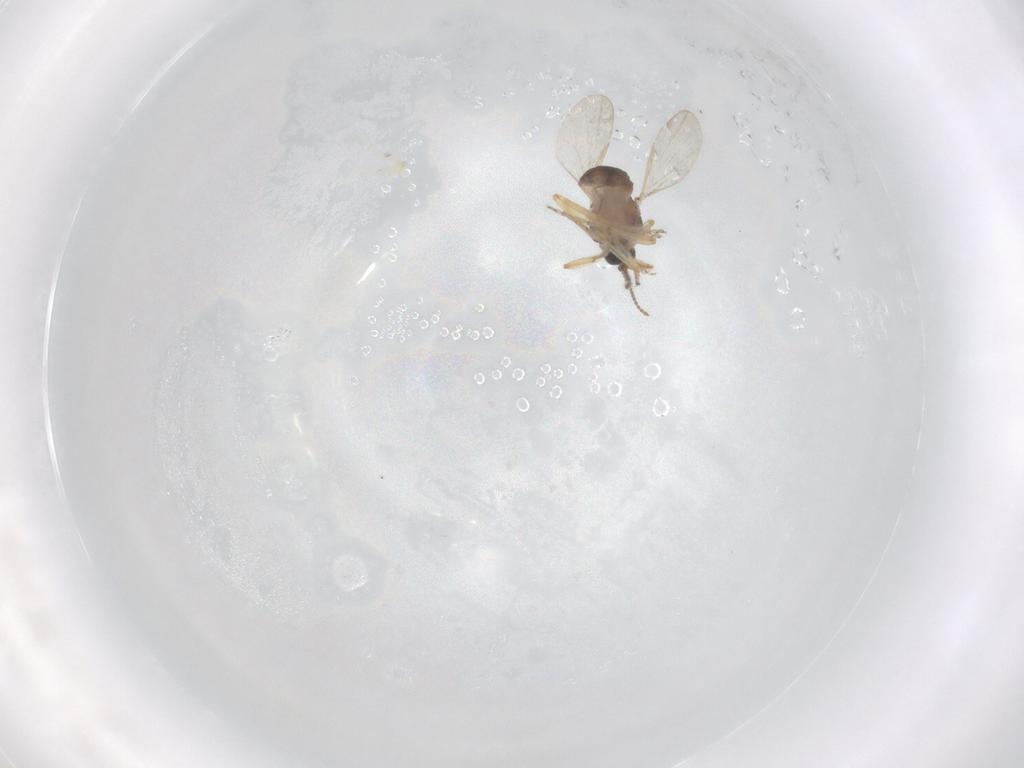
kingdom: Animalia
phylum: Arthropoda
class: Insecta
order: Diptera
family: Ceratopogonidae
